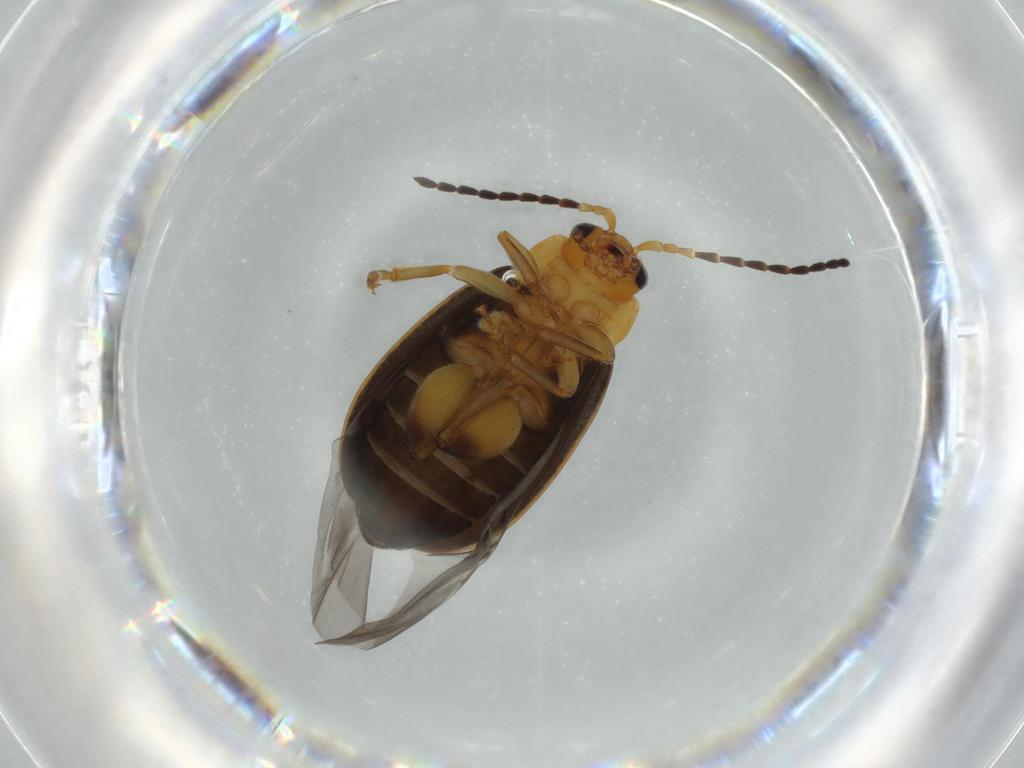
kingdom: Animalia
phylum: Arthropoda
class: Insecta
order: Coleoptera
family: Chrysomelidae
